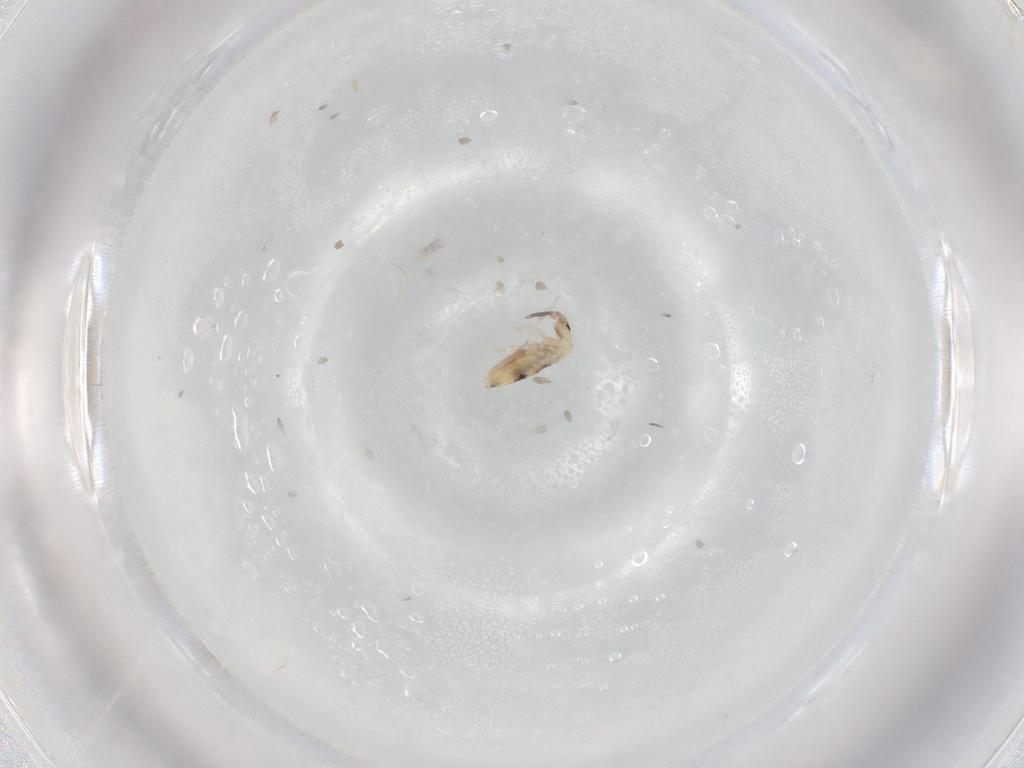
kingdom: Animalia
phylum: Arthropoda
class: Collembola
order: Entomobryomorpha
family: Entomobryidae
